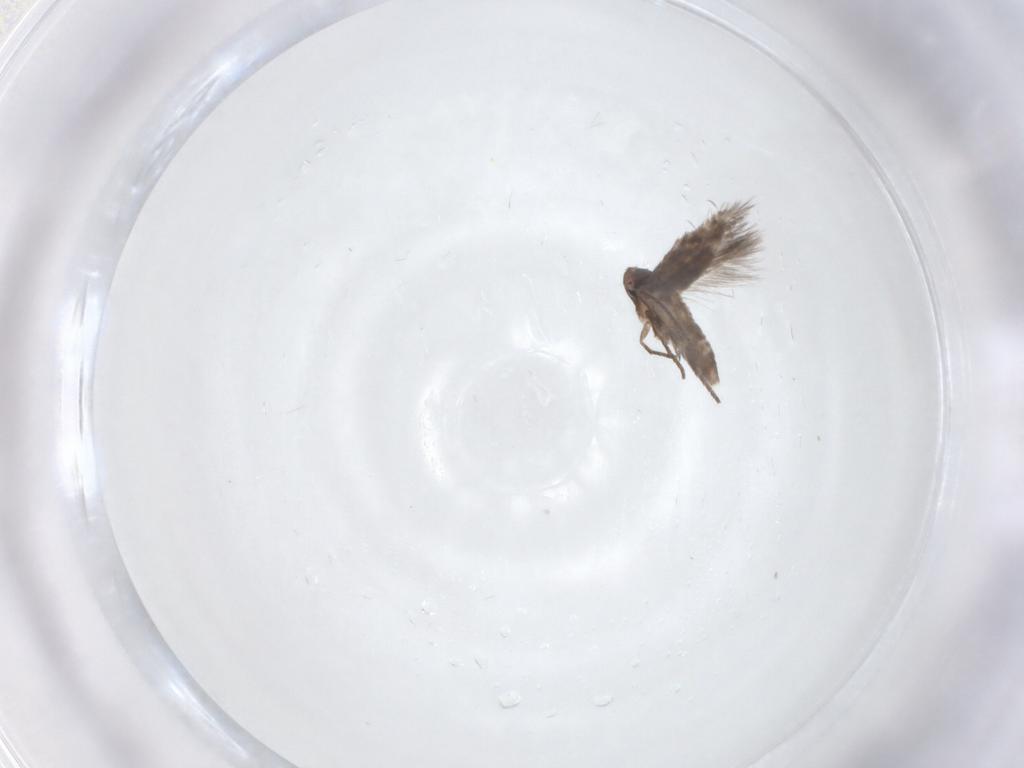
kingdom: Animalia
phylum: Arthropoda
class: Insecta
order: Lepidoptera
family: Lyonetiidae
